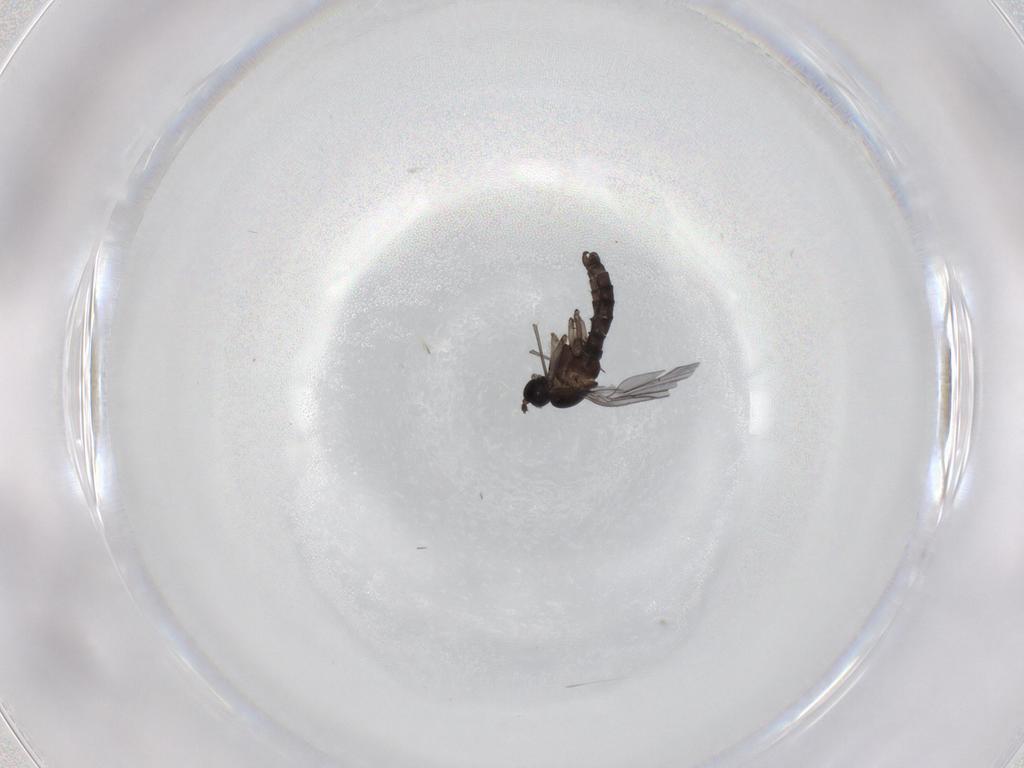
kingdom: Animalia
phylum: Arthropoda
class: Insecta
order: Diptera
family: Sciaridae
